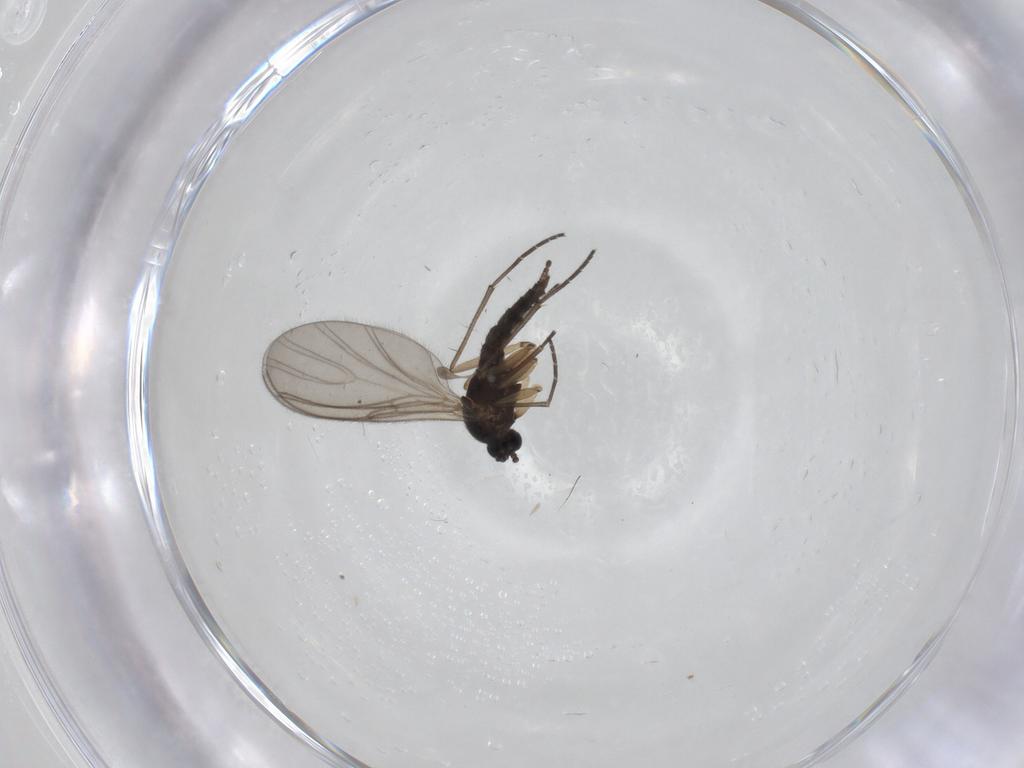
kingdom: Animalia
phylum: Arthropoda
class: Insecta
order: Diptera
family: Sciaridae
